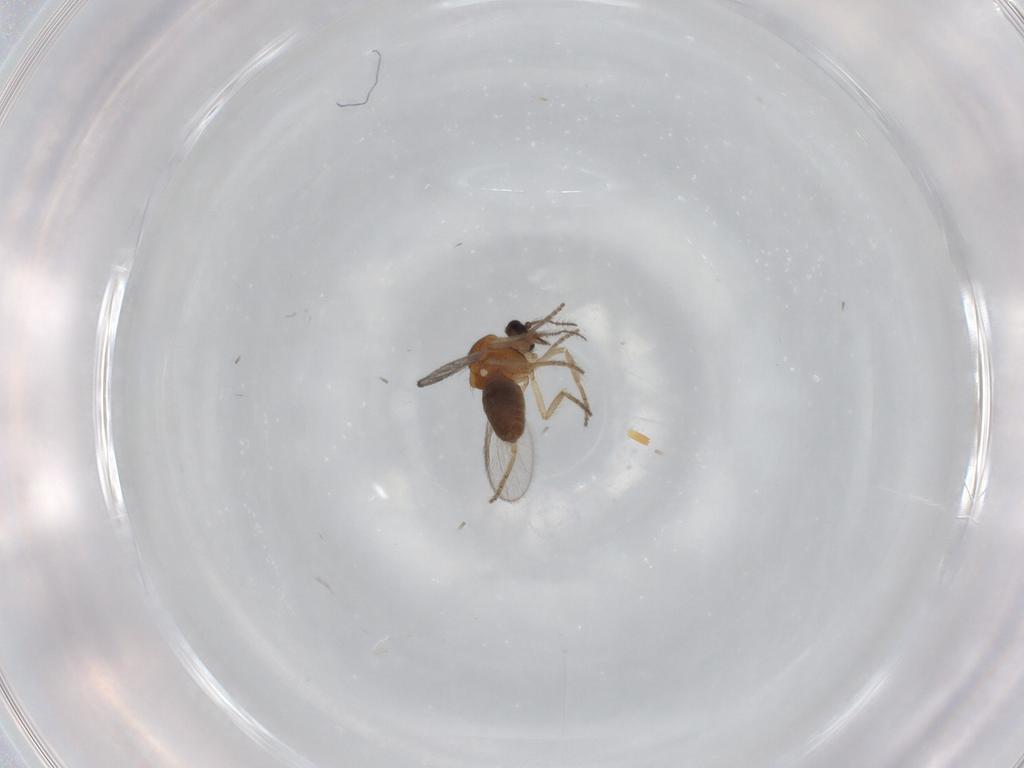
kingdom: Animalia
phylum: Arthropoda
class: Insecta
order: Diptera
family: Ceratopogonidae
